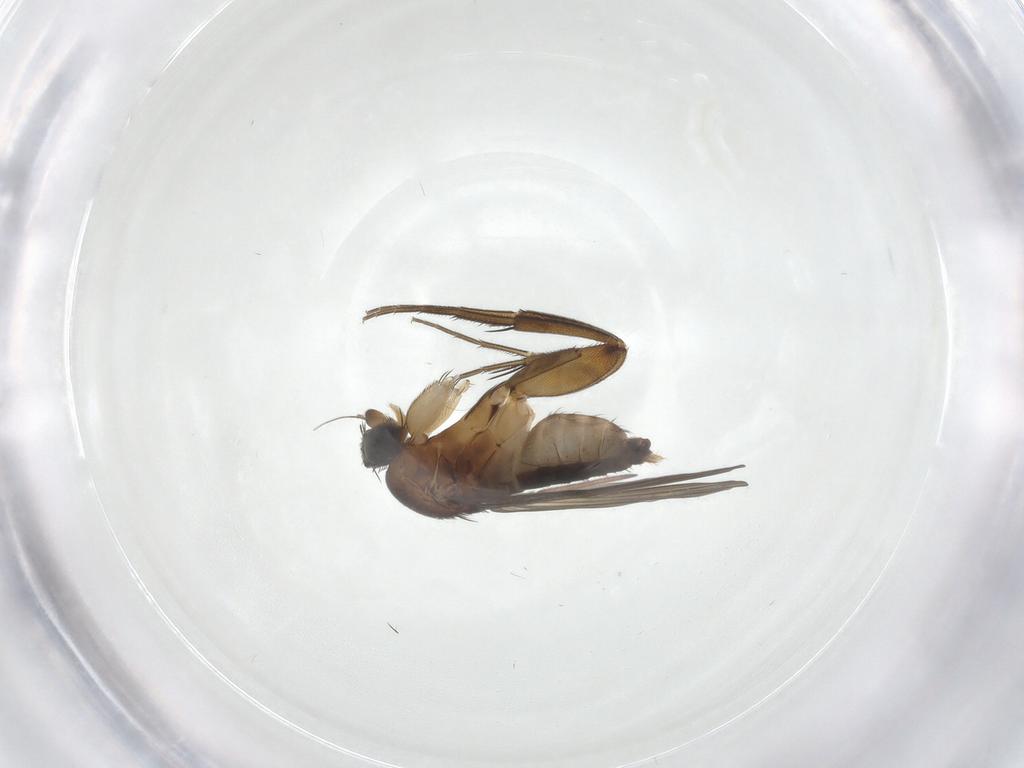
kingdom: Animalia
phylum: Arthropoda
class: Insecta
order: Diptera
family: Phoridae
